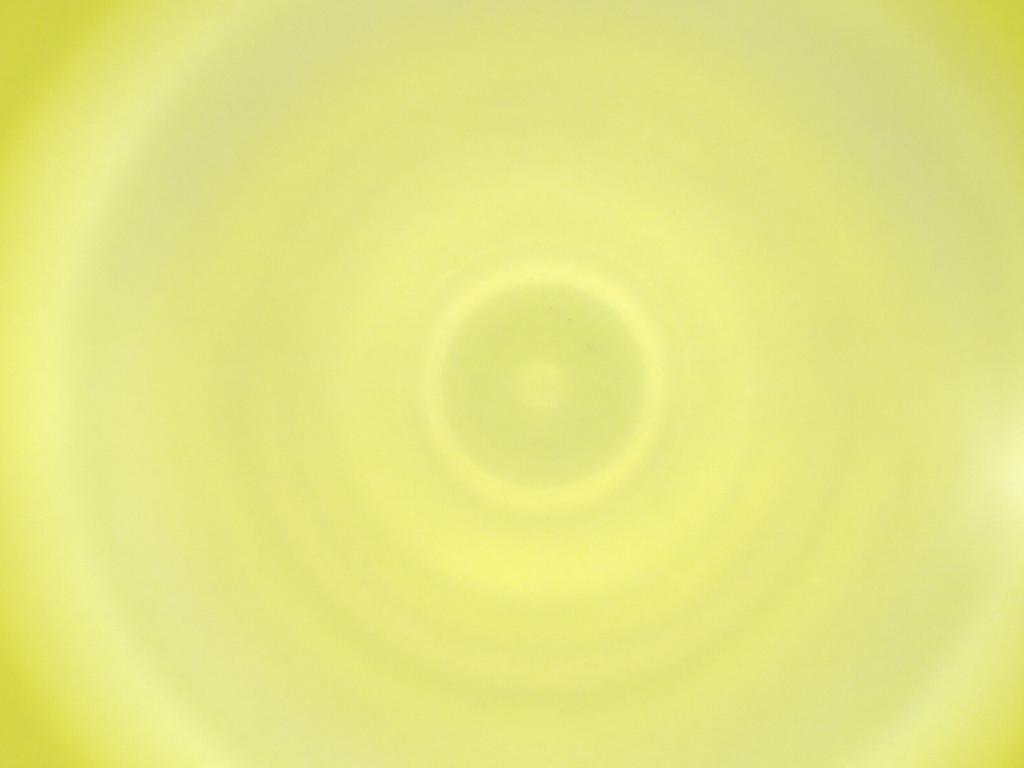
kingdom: Animalia
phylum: Arthropoda
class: Insecta
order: Diptera
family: Cecidomyiidae
